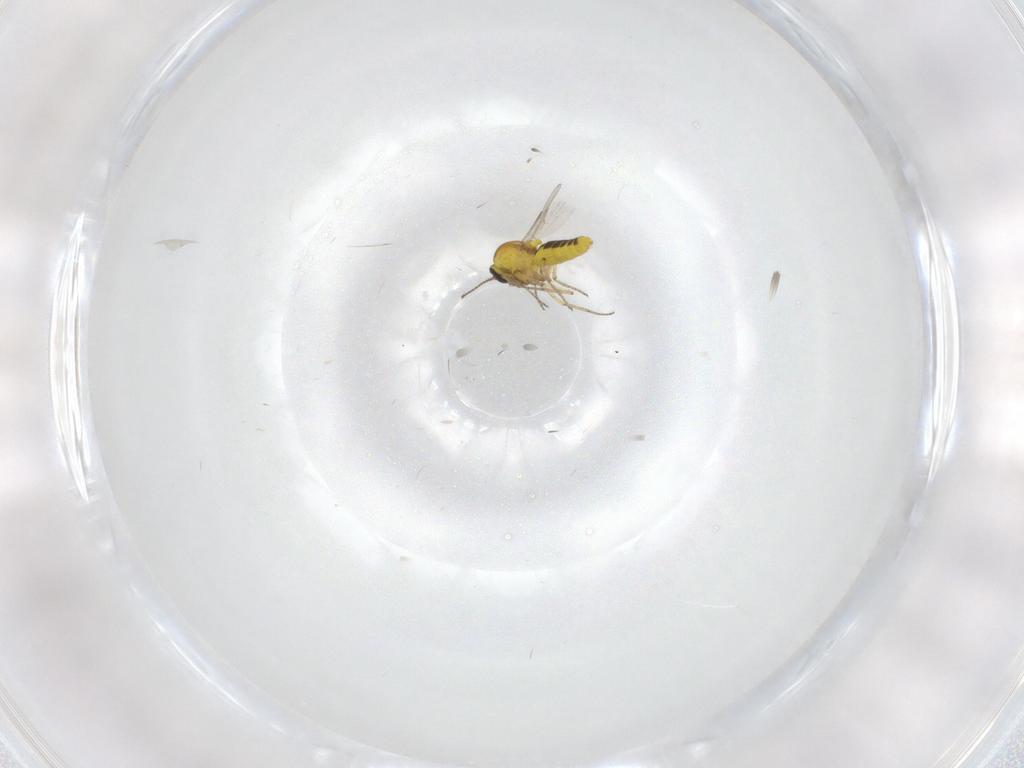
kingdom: Animalia
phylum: Arthropoda
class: Insecta
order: Diptera
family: Ceratopogonidae
